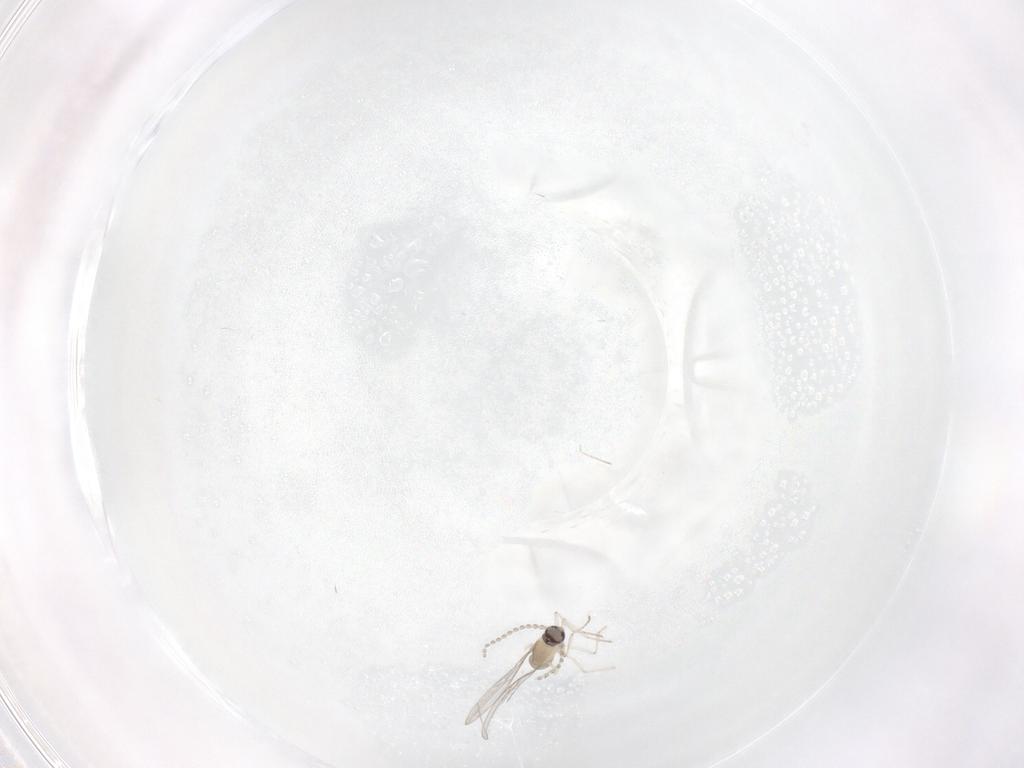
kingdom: Animalia
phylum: Arthropoda
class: Insecta
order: Diptera
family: Cecidomyiidae
